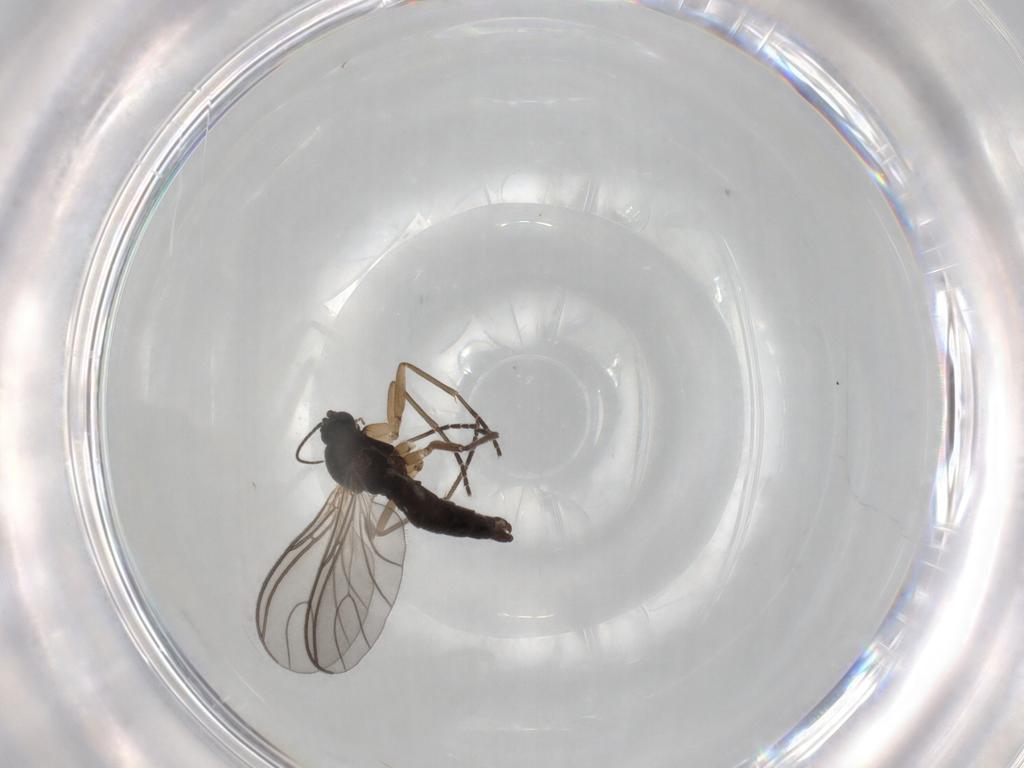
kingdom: Animalia
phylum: Arthropoda
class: Insecta
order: Diptera
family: Sciaridae
